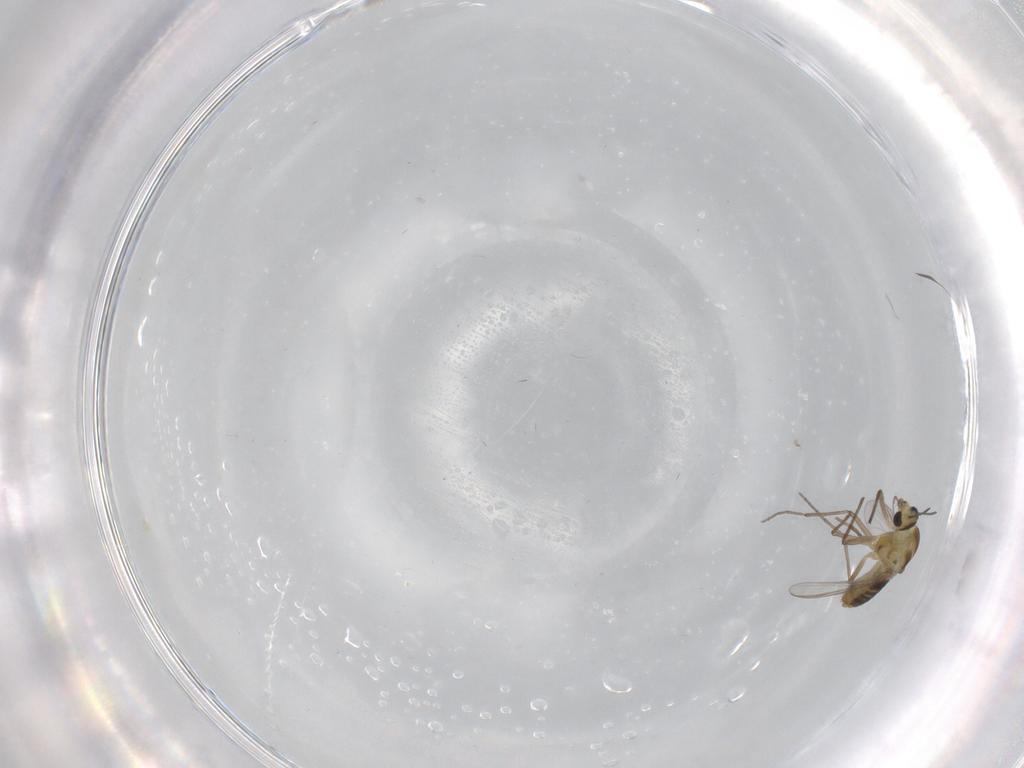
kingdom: Animalia
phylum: Arthropoda
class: Insecta
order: Diptera
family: Chironomidae
